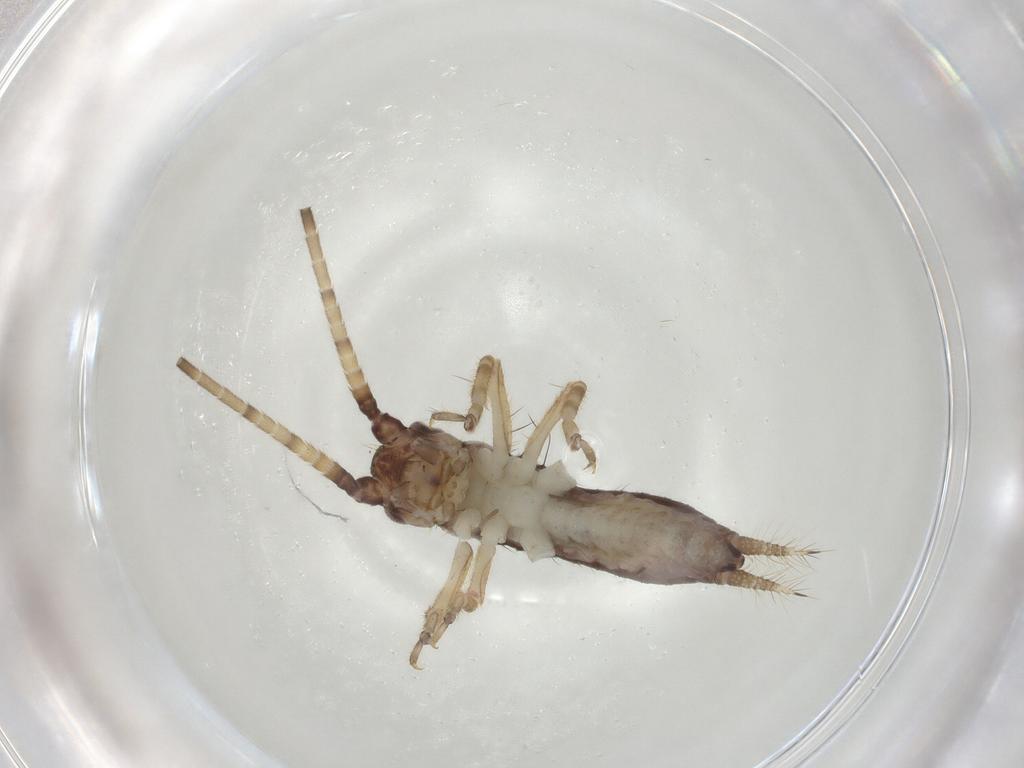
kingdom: Animalia
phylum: Arthropoda
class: Insecta
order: Orthoptera
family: Gryllidae
